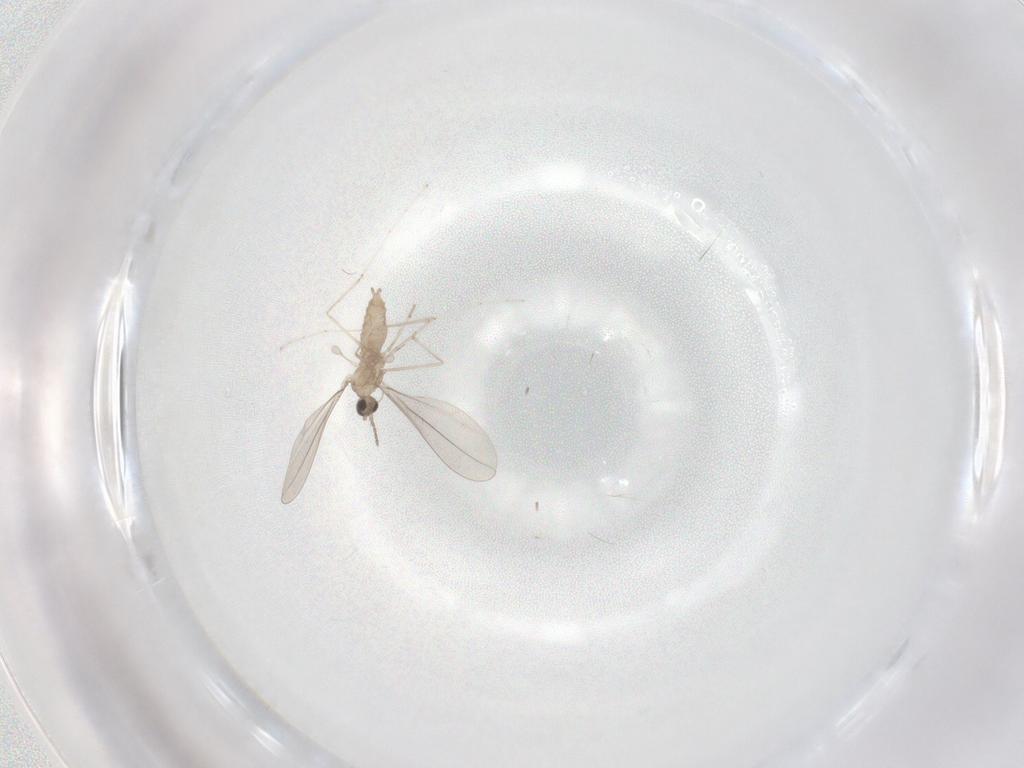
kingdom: Animalia
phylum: Arthropoda
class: Insecta
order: Diptera
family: Cecidomyiidae
